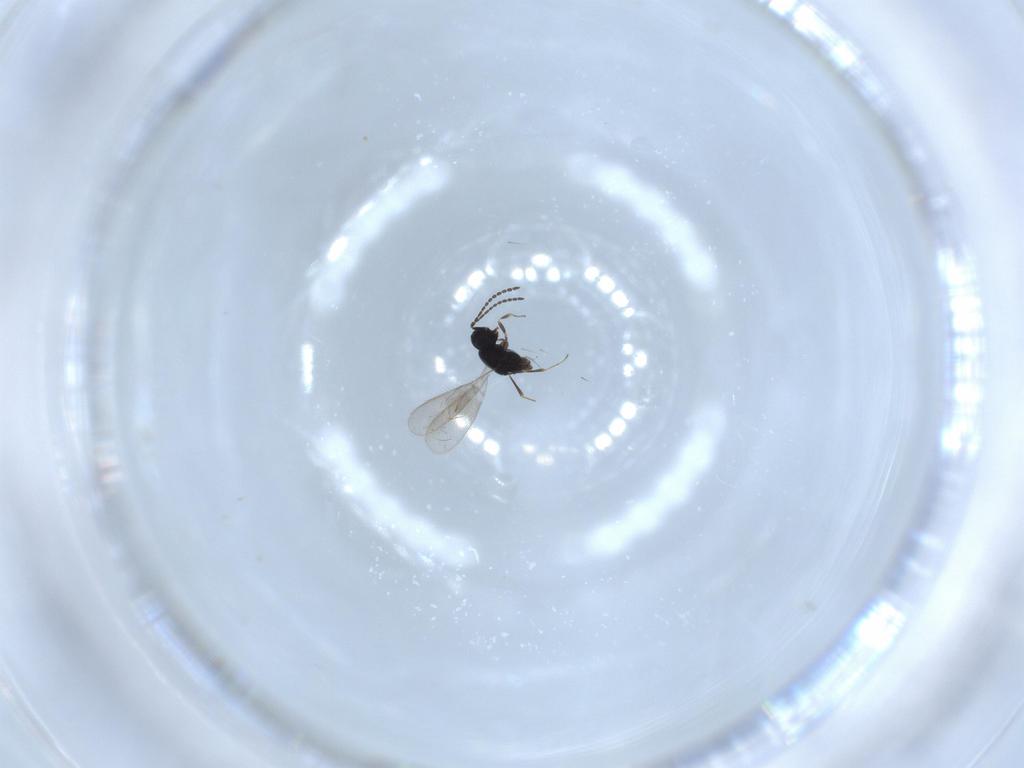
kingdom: Animalia
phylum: Arthropoda
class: Insecta
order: Hymenoptera
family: Scelionidae
